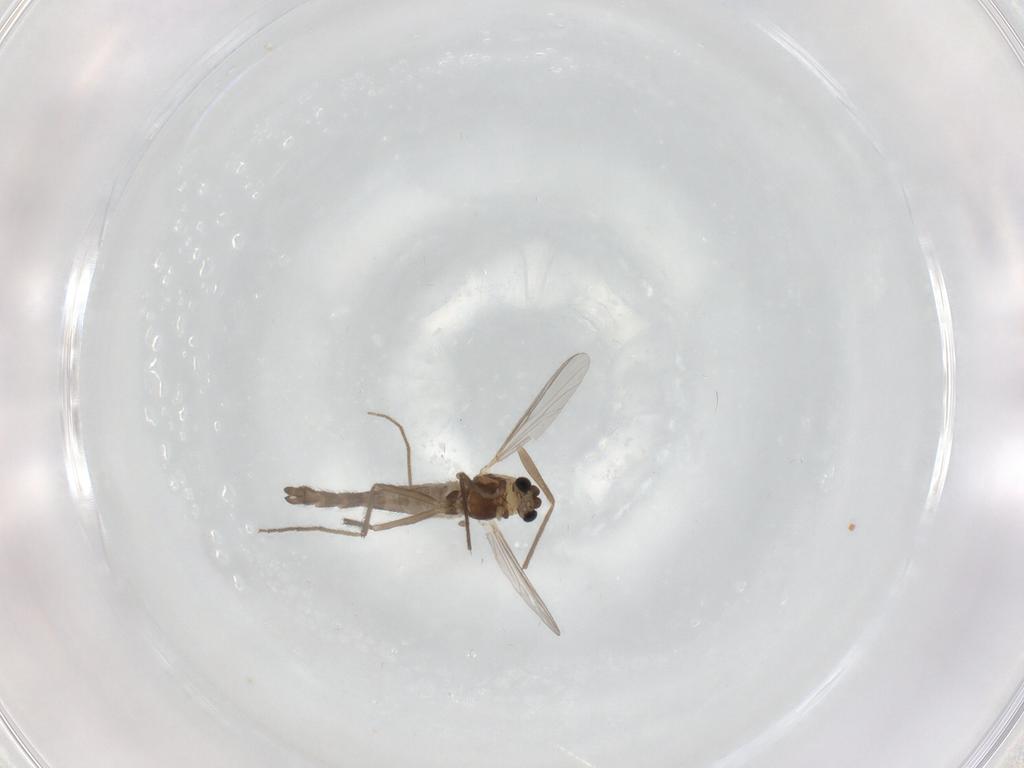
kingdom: Animalia
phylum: Arthropoda
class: Insecta
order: Diptera
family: Chironomidae
